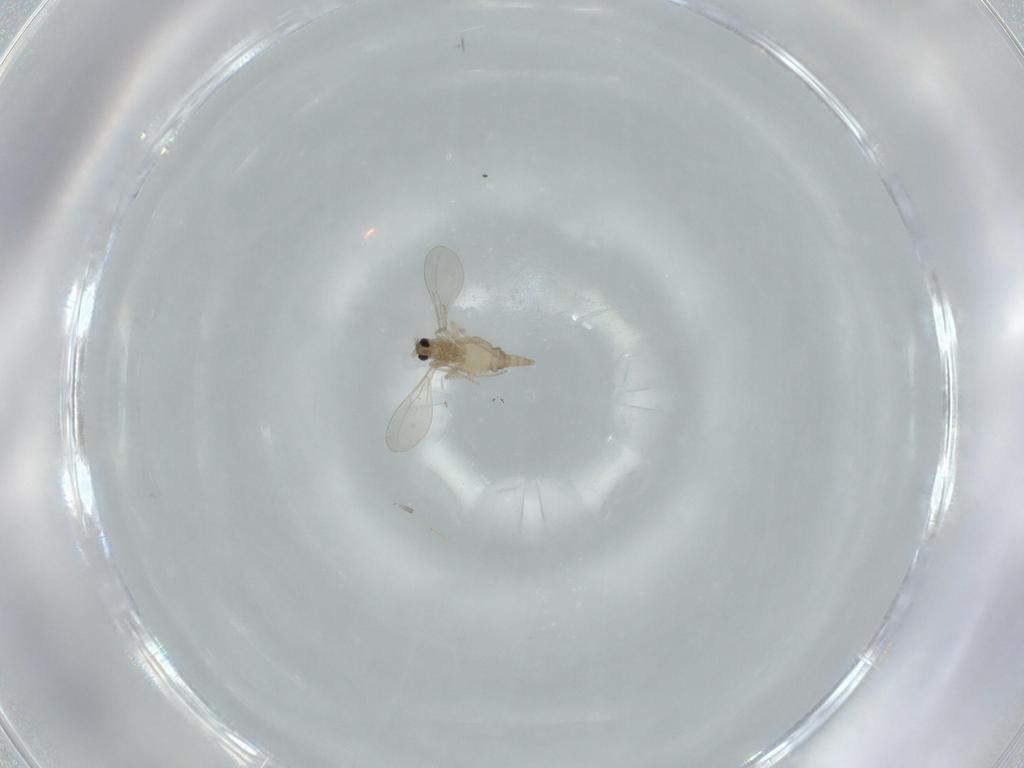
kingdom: Animalia
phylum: Arthropoda
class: Insecta
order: Diptera
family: Cecidomyiidae
